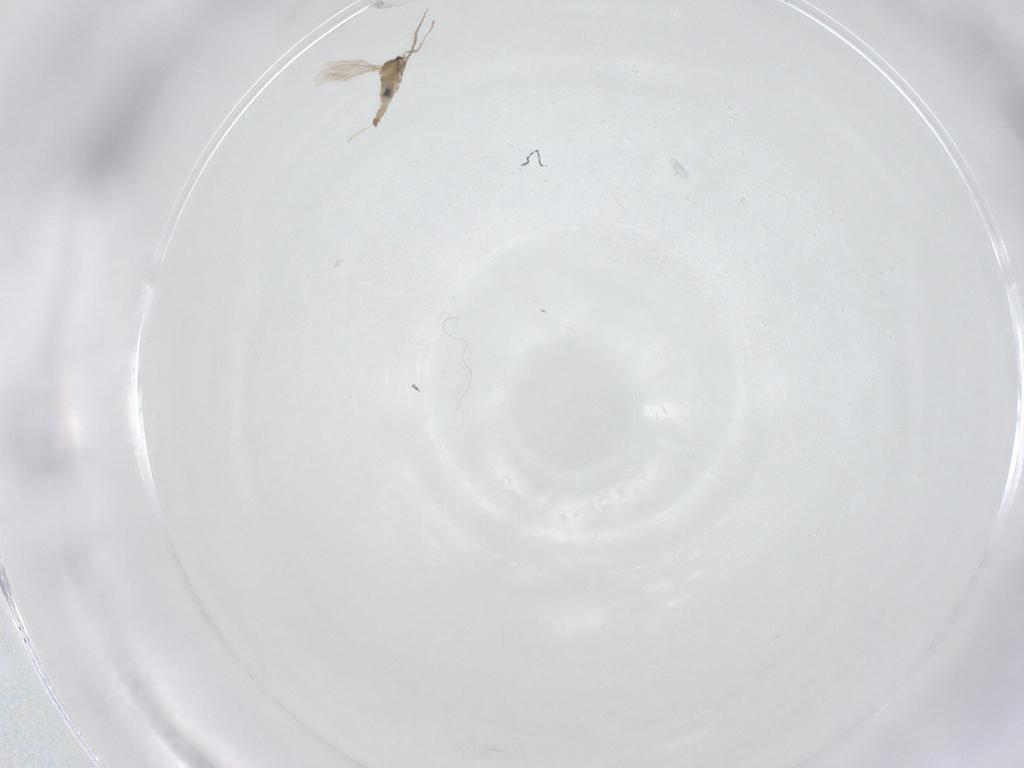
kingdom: Animalia
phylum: Arthropoda
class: Insecta
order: Diptera
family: Cecidomyiidae
